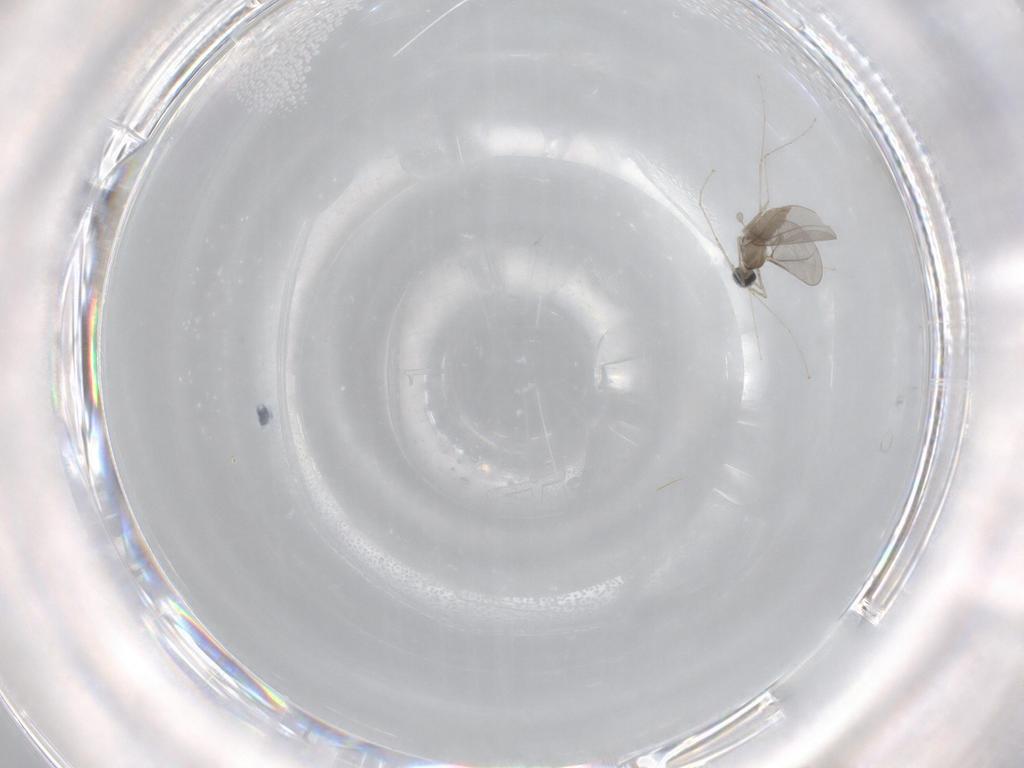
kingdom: Animalia
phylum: Arthropoda
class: Insecta
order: Diptera
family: Cecidomyiidae
